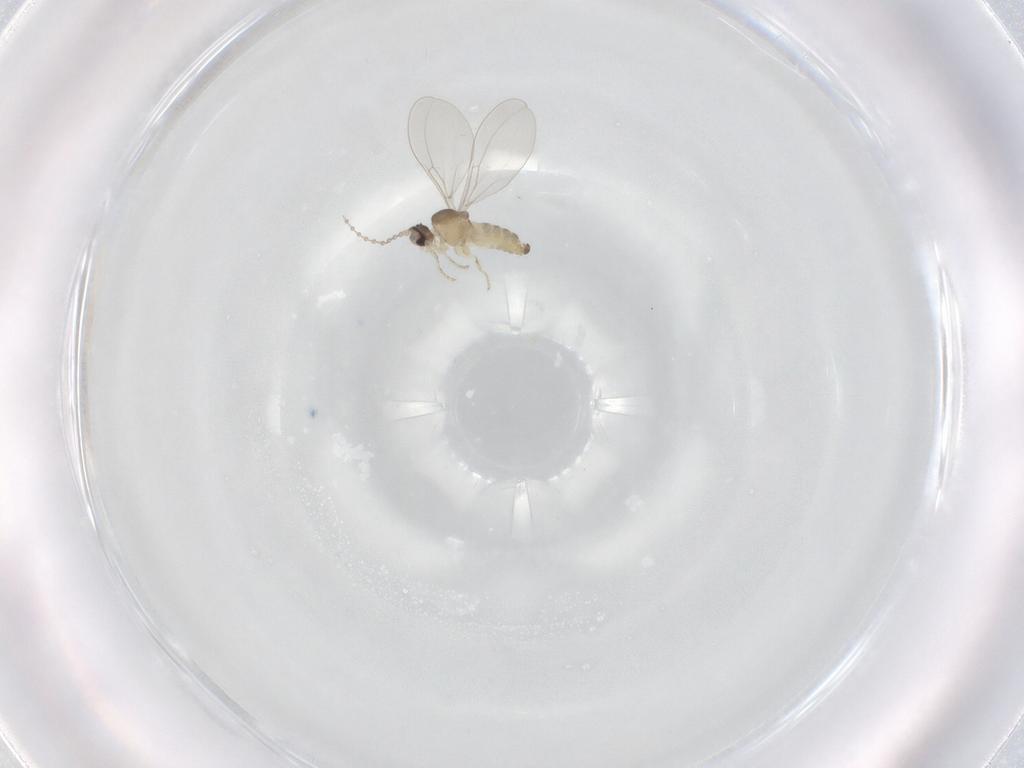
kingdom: Animalia
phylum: Arthropoda
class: Insecta
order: Diptera
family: Cecidomyiidae
